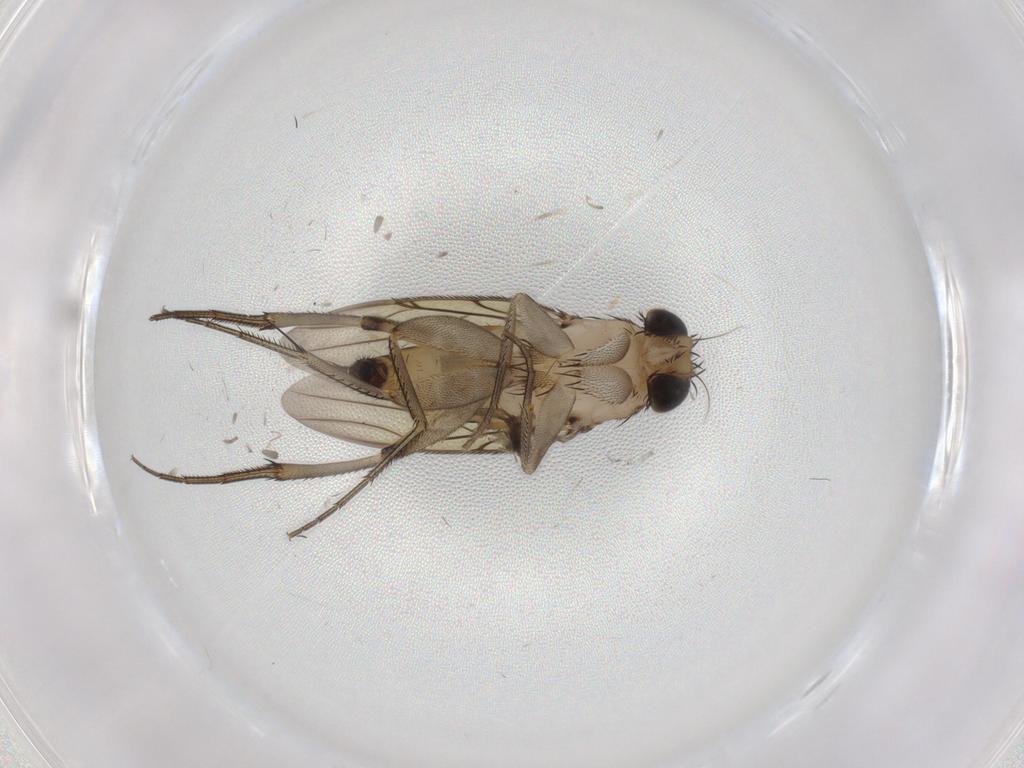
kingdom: Animalia
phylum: Arthropoda
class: Insecta
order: Diptera
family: Phoridae
